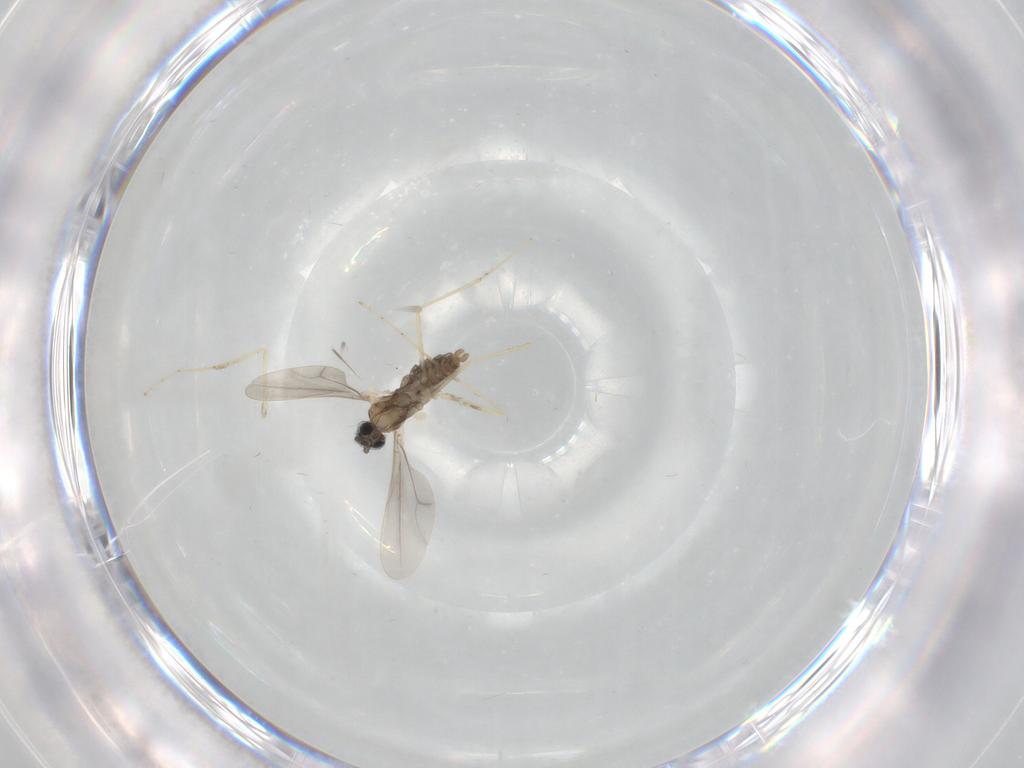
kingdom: Animalia
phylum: Arthropoda
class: Insecta
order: Diptera
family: Cecidomyiidae
